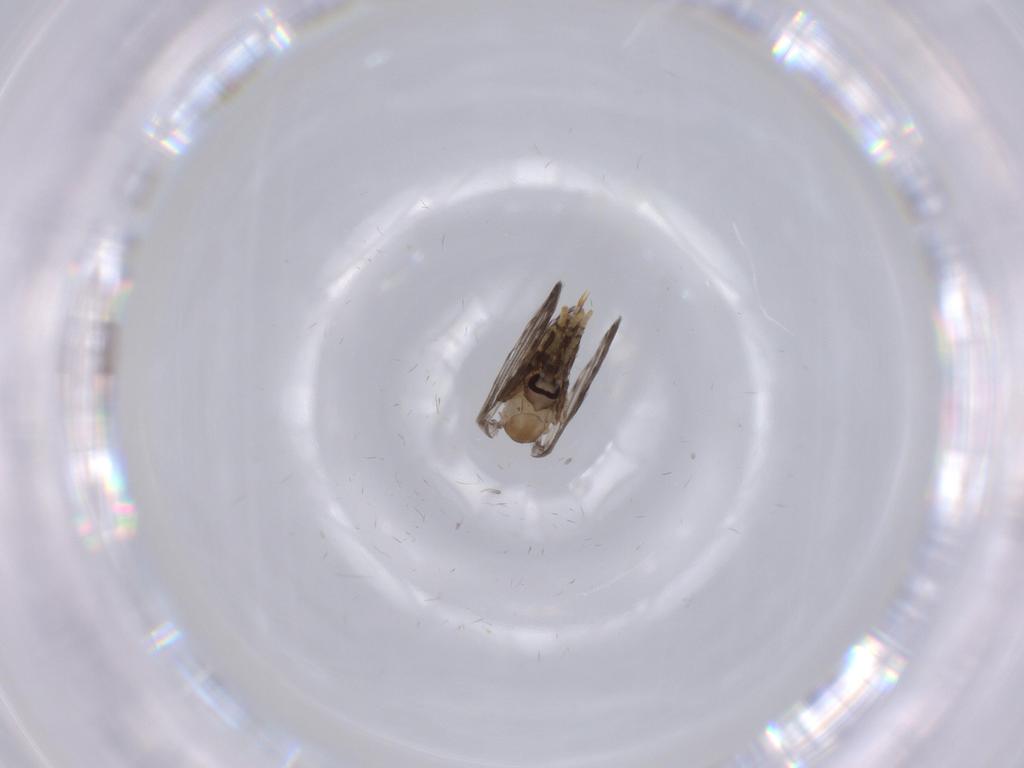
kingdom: Animalia
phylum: Arthropoda
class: Insecta
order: Diptera
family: Psychodidae
